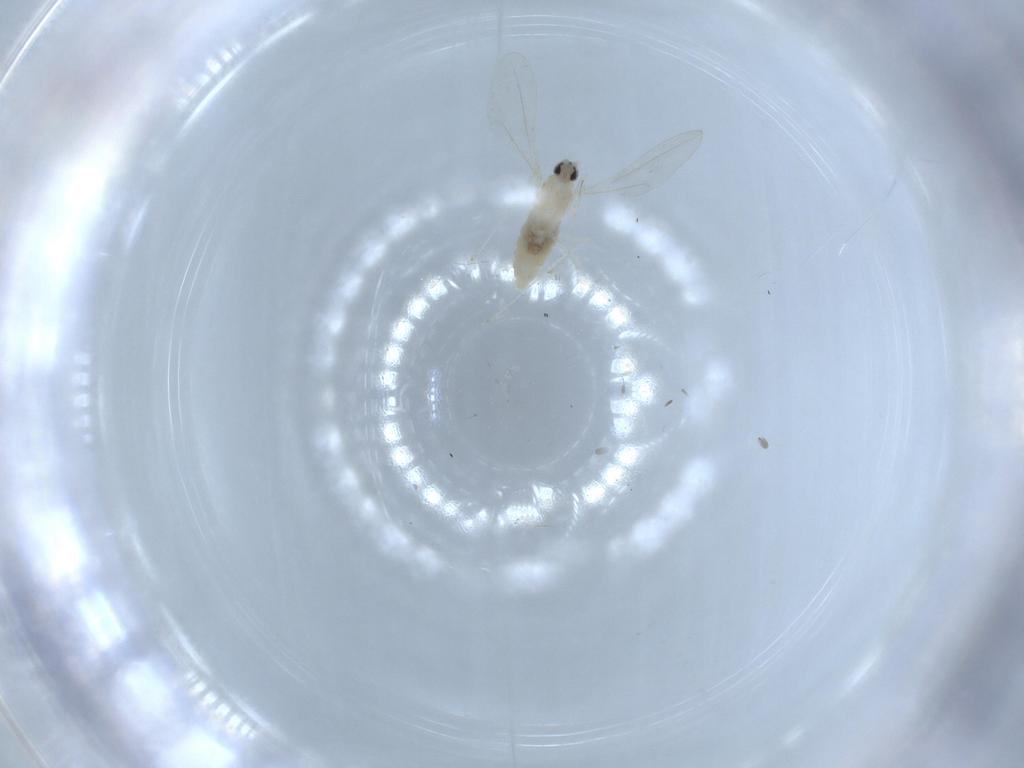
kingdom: Animalia
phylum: Arthropoda
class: Insecta
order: Diptera
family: Cecidomyiidae
